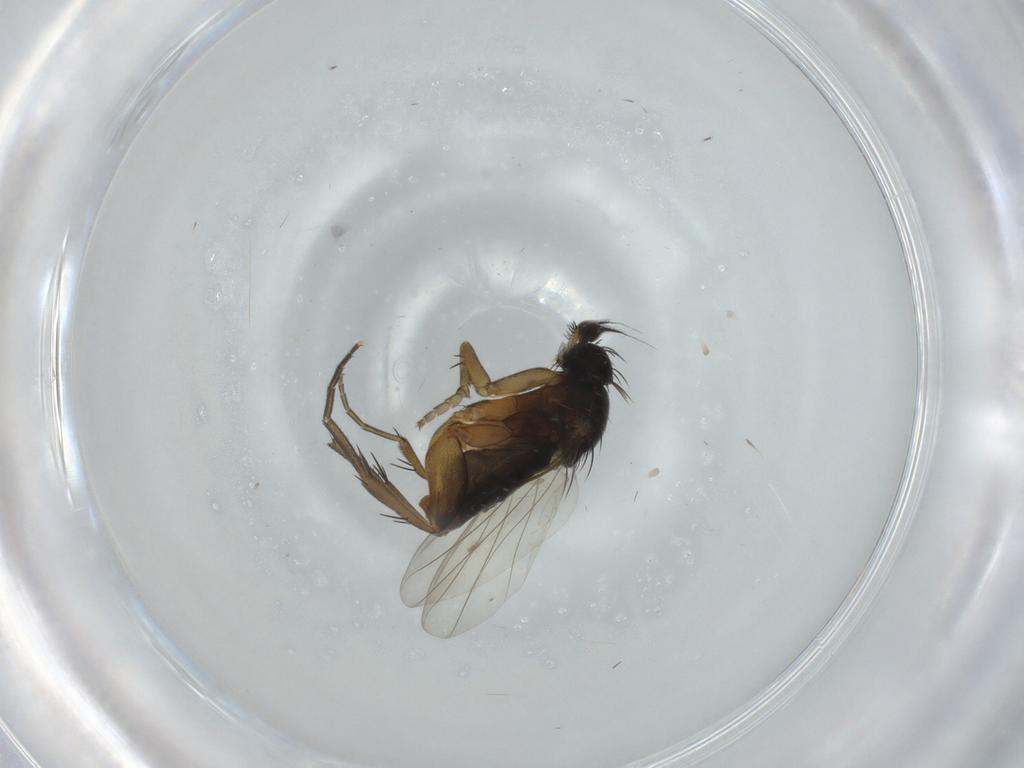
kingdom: Animalia
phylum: Arthropoda
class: Insecta
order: Diptera
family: Phoridae
